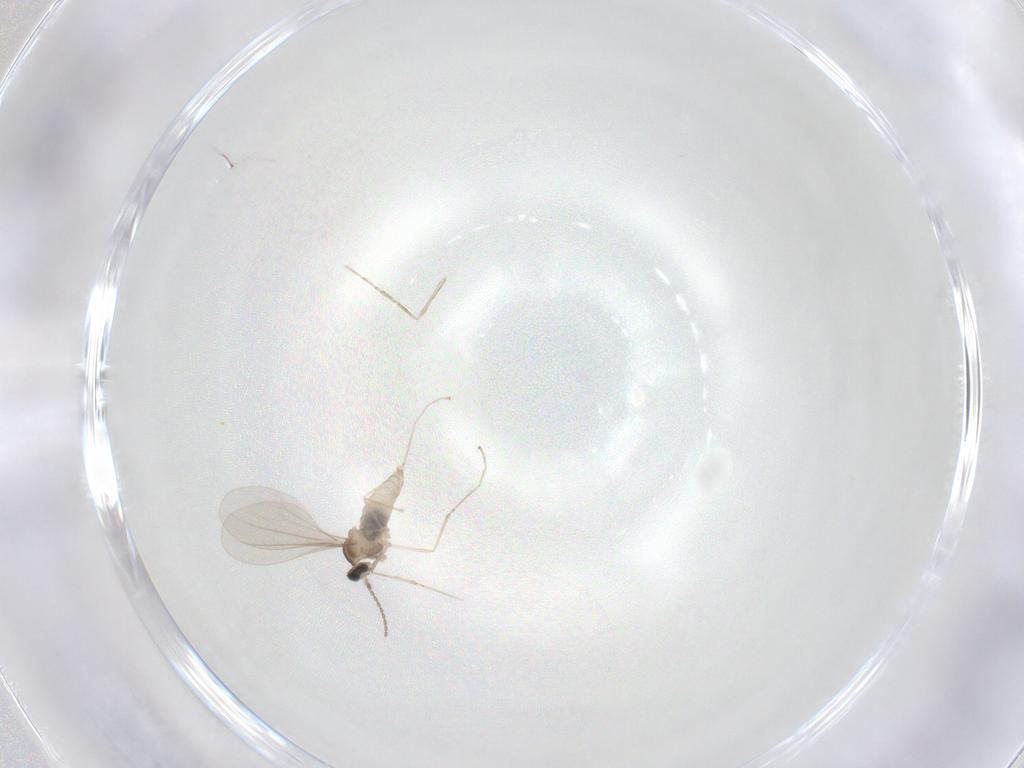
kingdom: Animalia
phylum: Arthropoda
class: Insecta
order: Diptera
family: Cecidomyiidae
